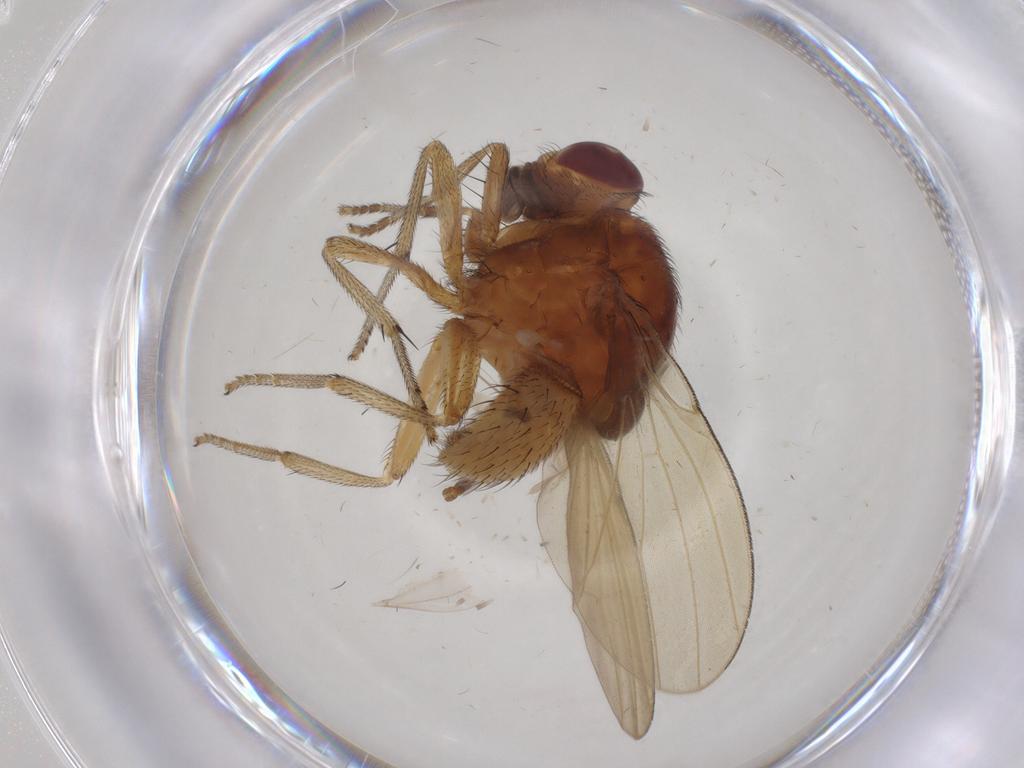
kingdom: Animalia
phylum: Arthropoda
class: Insecta
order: Diptera
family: Lauxaniidae
